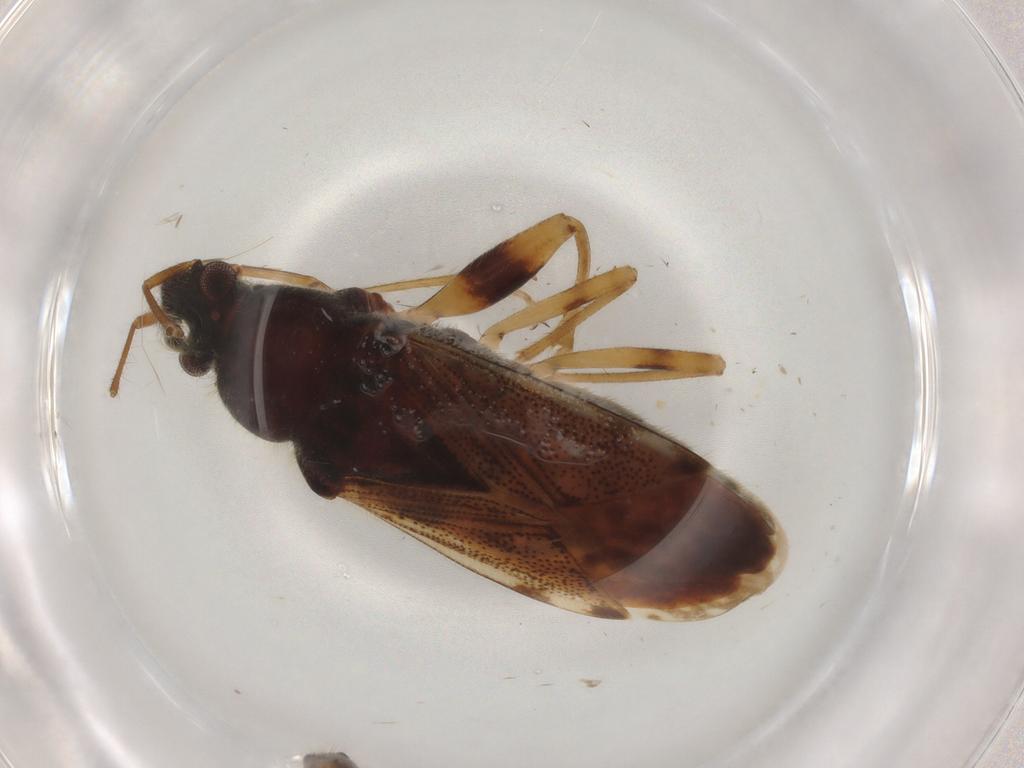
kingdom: Animalia
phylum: Arthropoda
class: Insecta
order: Hemiptera
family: Rhyparochromidae
